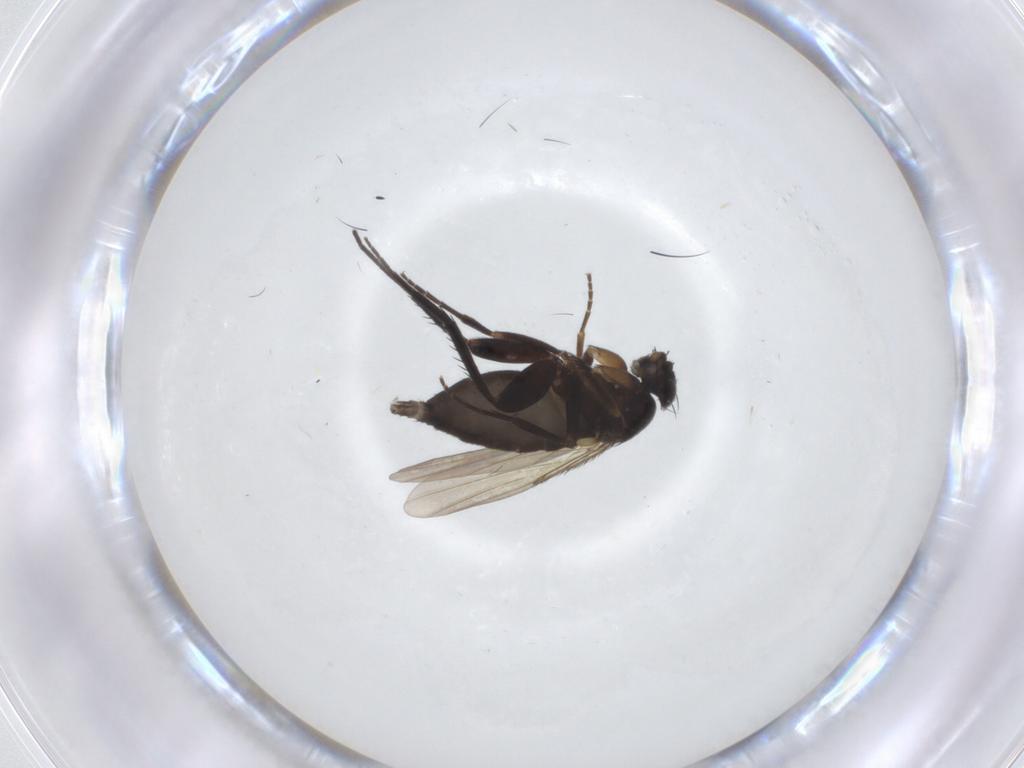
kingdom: Animalia
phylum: Arthropoda
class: Insecta
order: Diptera
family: Phoridae
